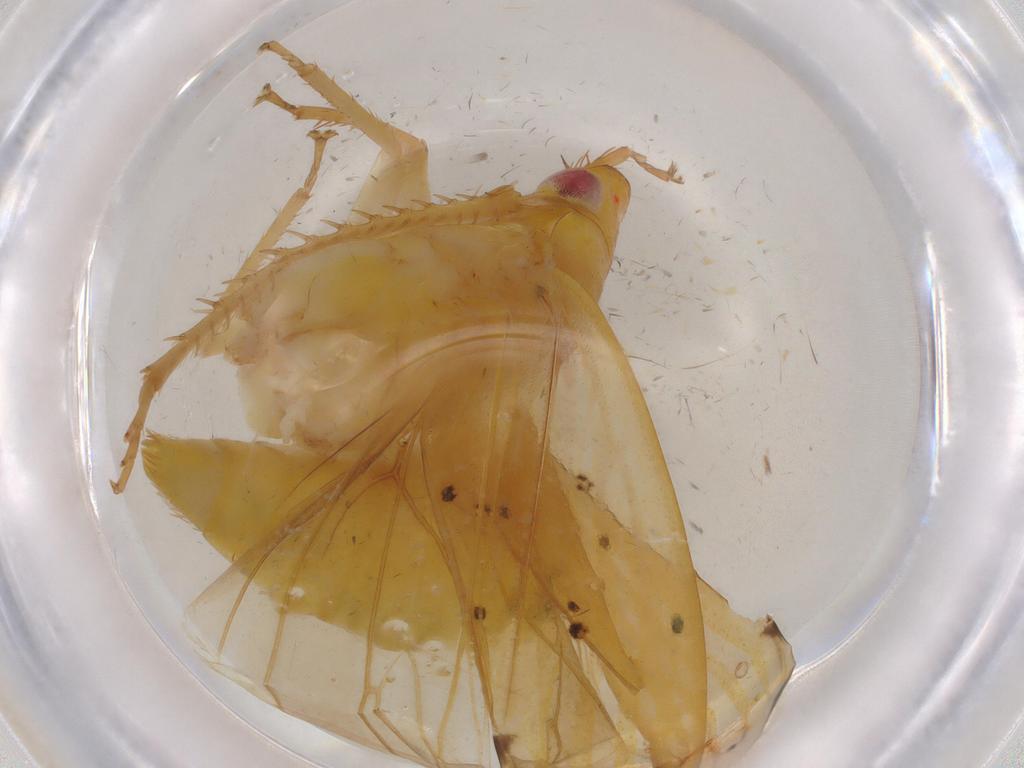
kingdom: Animalia
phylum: Arthropoda
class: Insecta
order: Hemiptera
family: Cicadellidae
